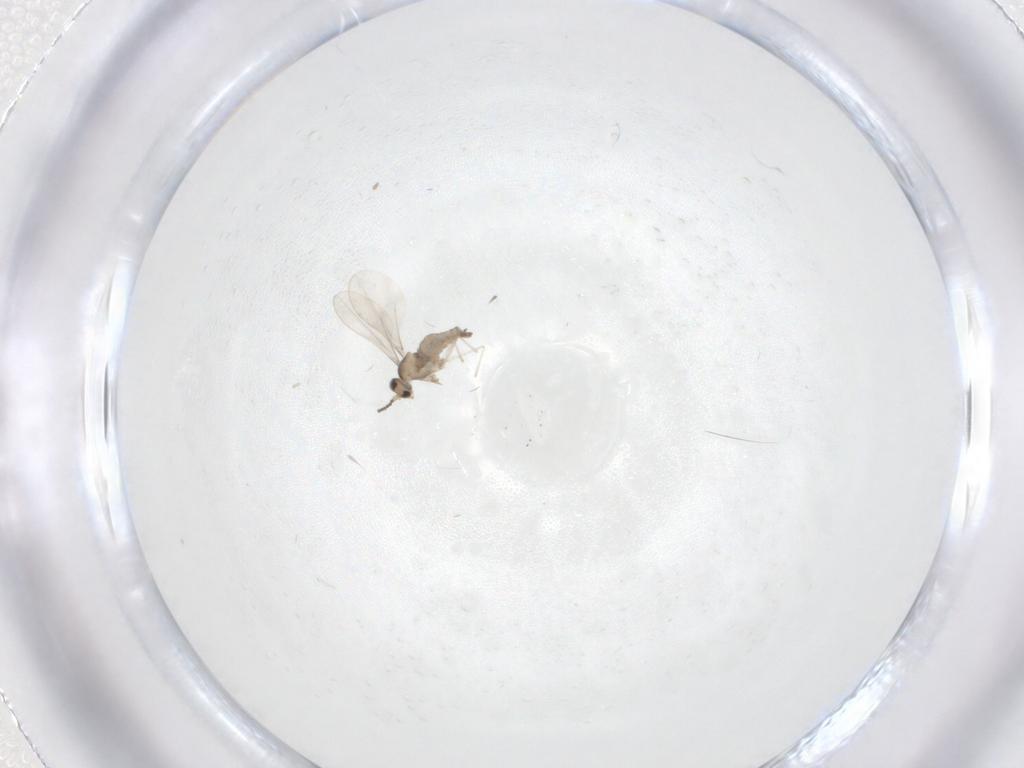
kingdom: Animalia
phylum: Arthropoda
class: Insecta
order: Diptera
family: Cecidomyiidae
